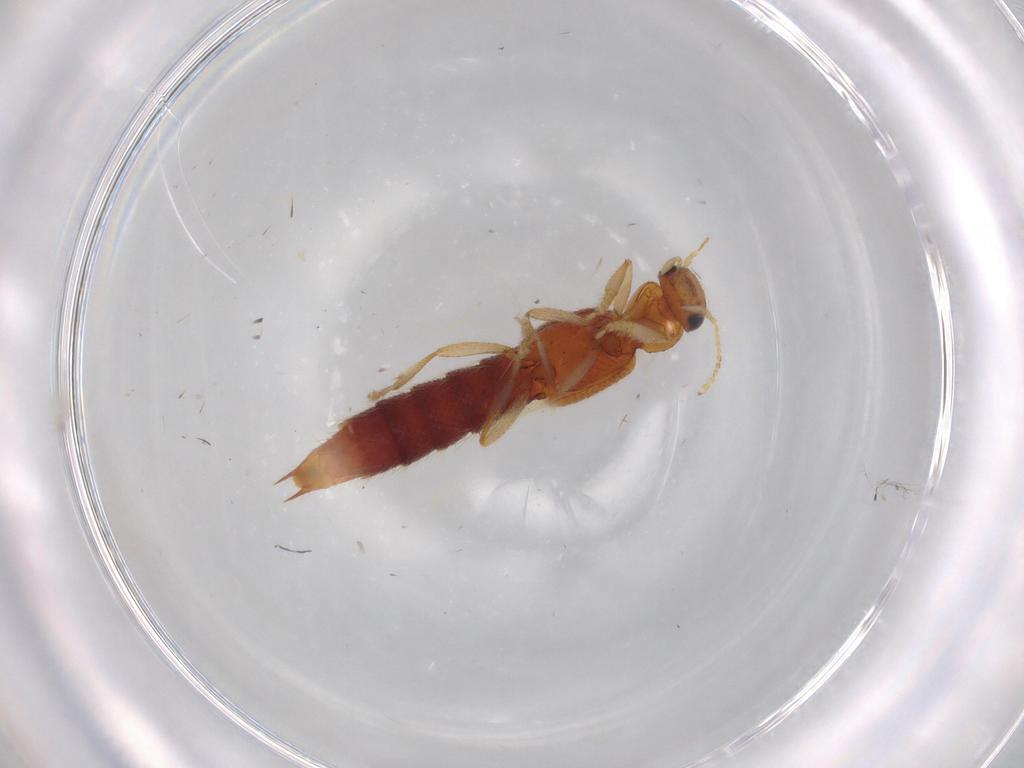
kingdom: Animalia
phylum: Arthropoda
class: Insecta
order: Coleoptera
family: Staphylinidae
